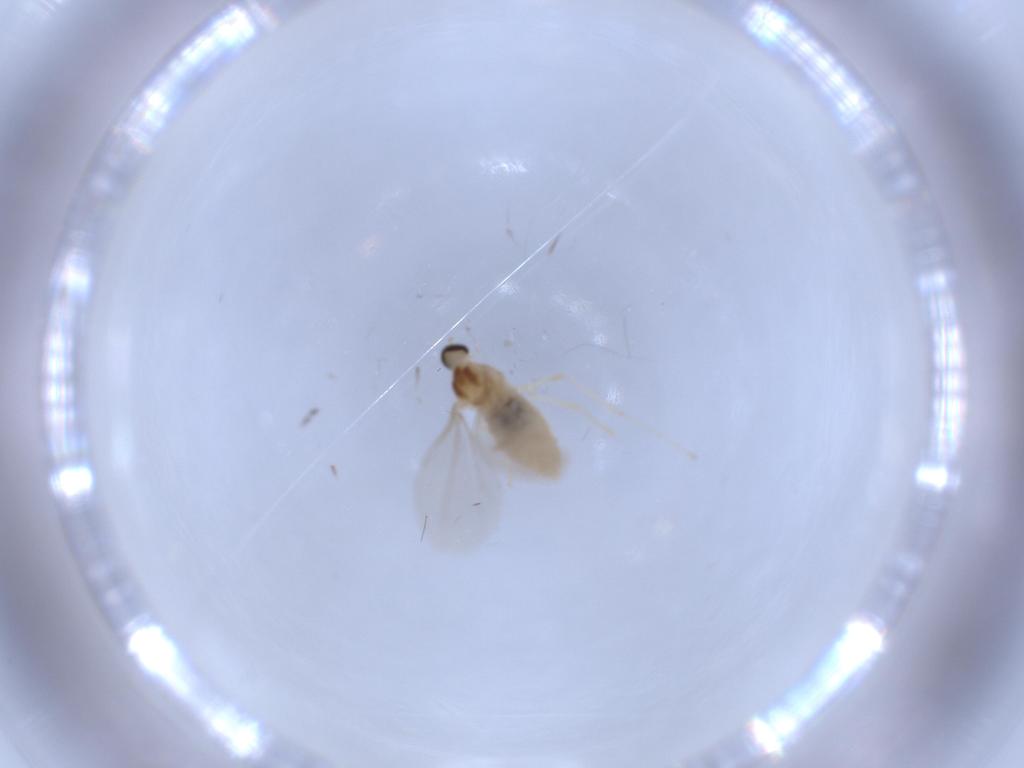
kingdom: Animalia
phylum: Arthropoda
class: Insecta
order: Diptera
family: Cecidomyiidae
